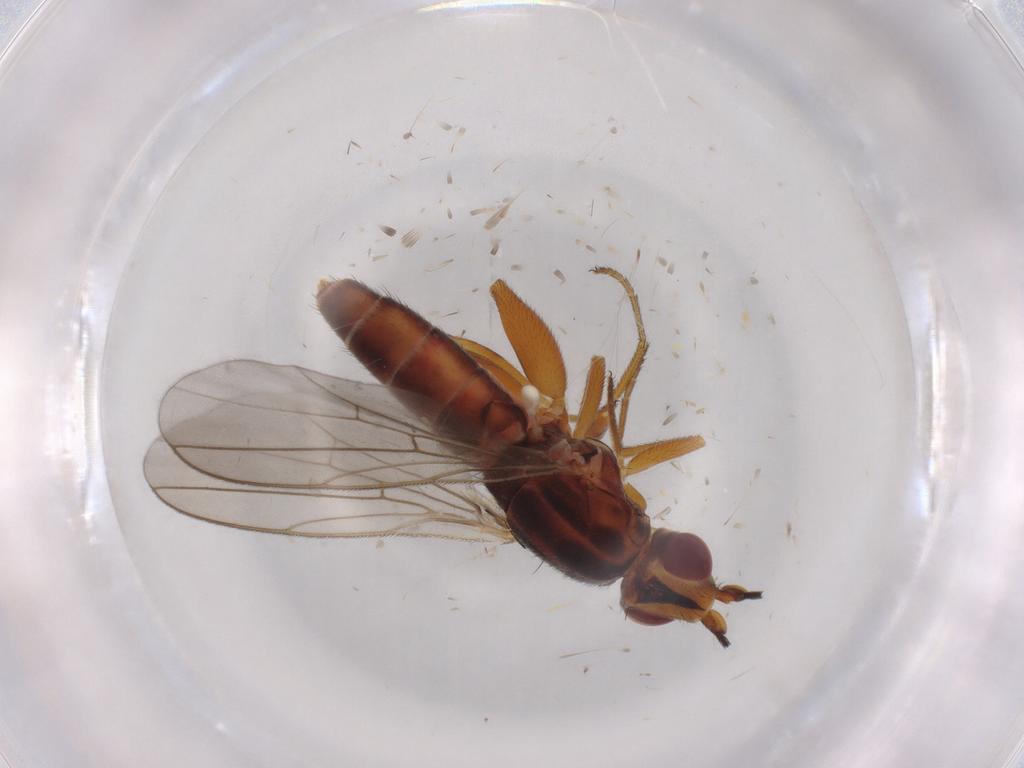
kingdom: Animalia
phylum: Arthropoda
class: Insecta
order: Diptera
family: Chloropidae
